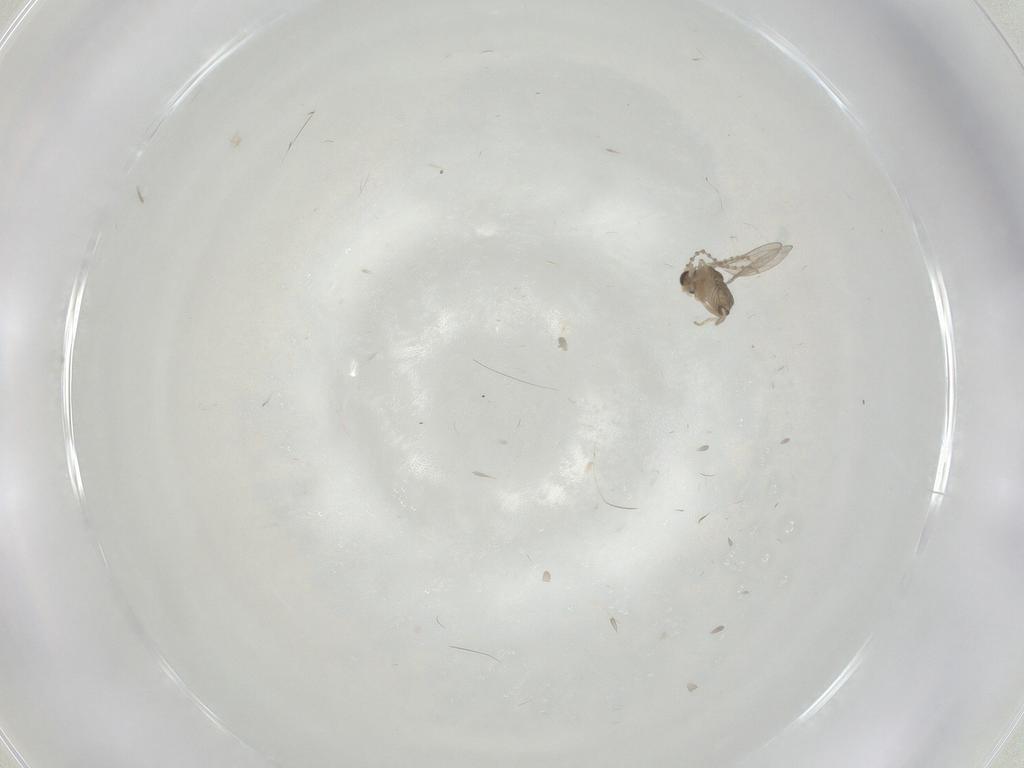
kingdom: Animalia
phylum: Arthropoda
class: Insecta
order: Diptera
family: Cecidomyiidae
